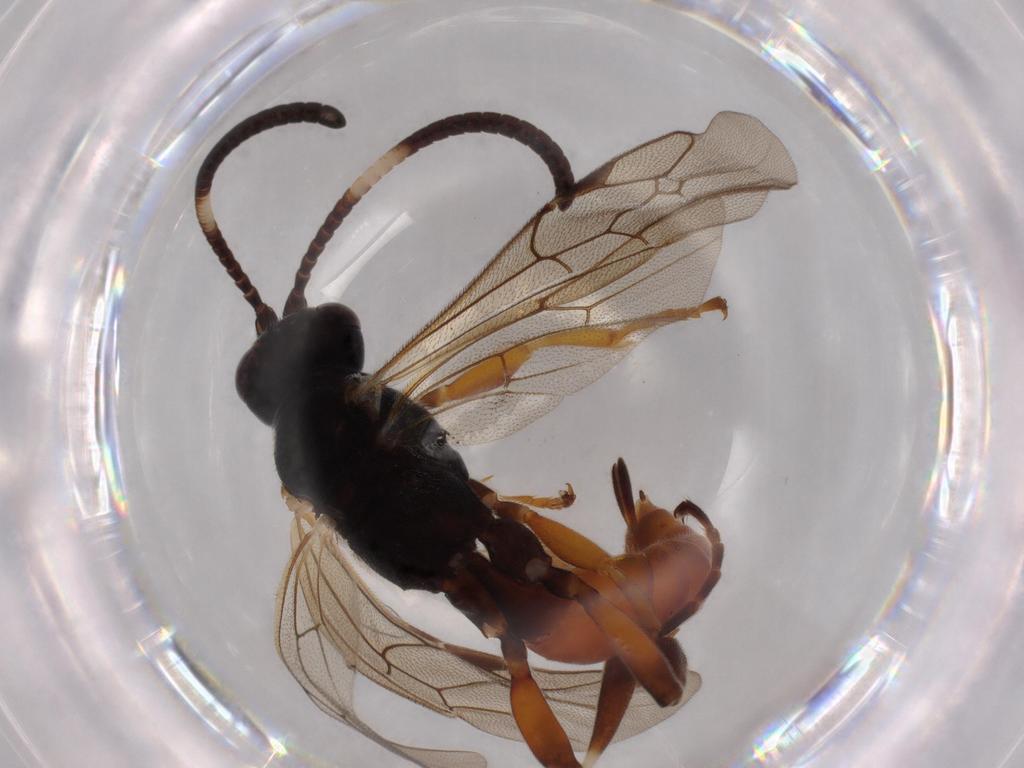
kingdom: Animalia
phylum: Arthropoda
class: Insecta
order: Hymenoptera
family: Ichneumonidae
